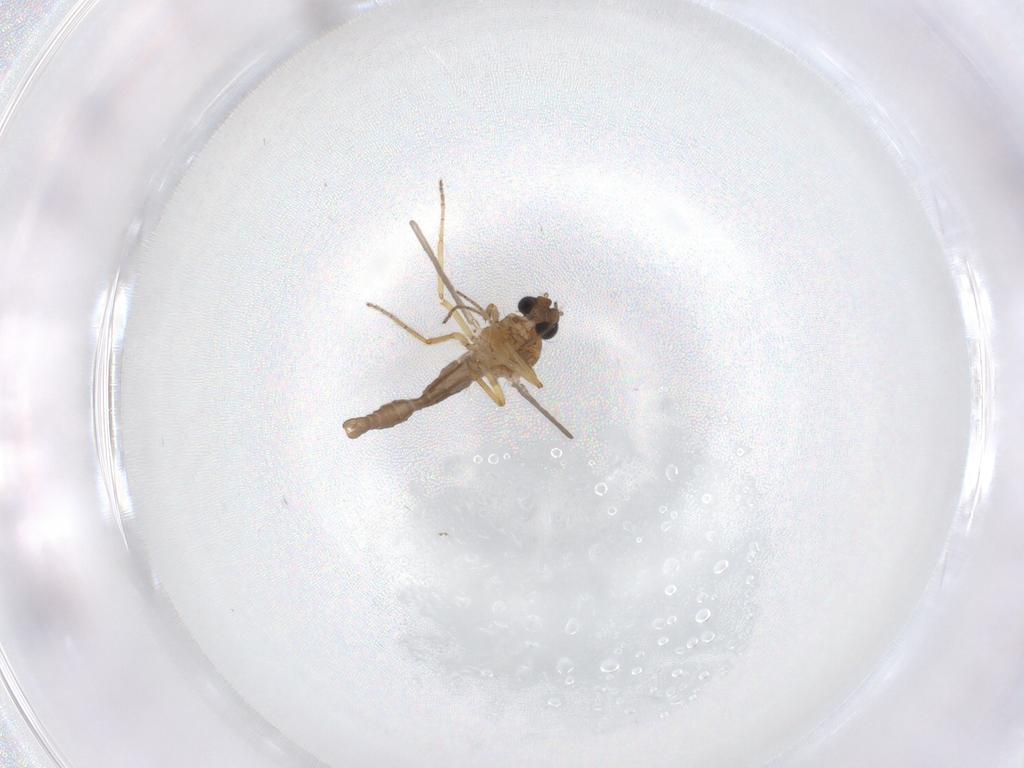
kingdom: Animalia
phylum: Arthropoda
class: Insecta
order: Diptera
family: Ceratopogonidae
